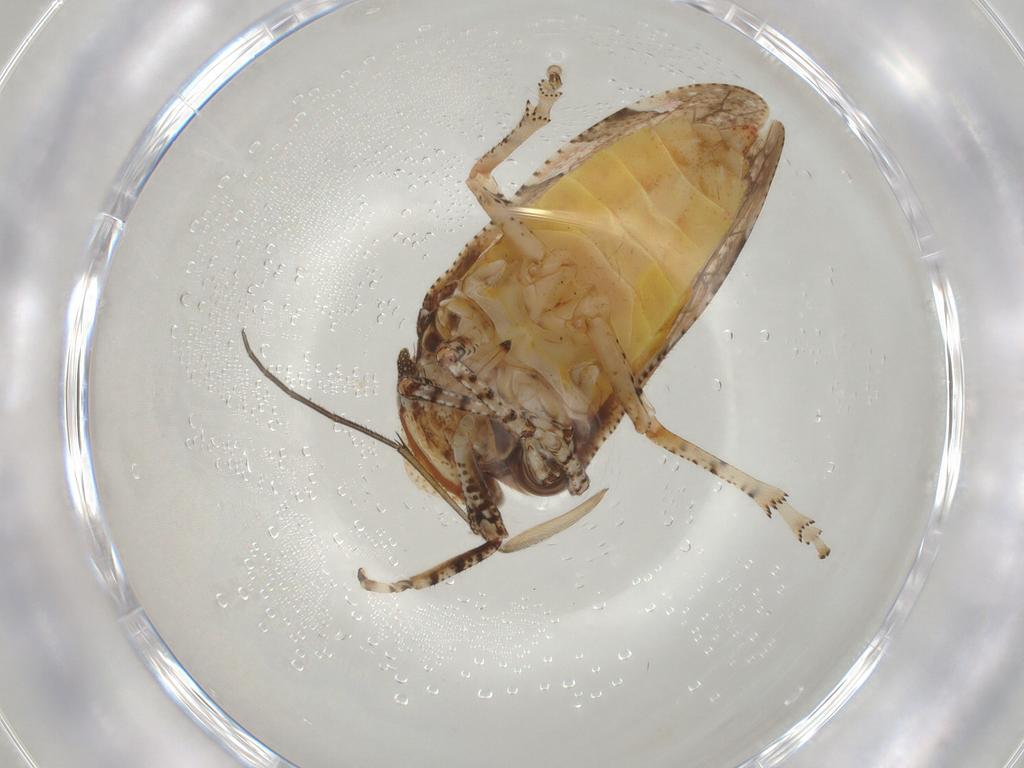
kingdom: Animalia
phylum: Arthropoda
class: Insecta
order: Hemiptera
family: Tettigometridae
